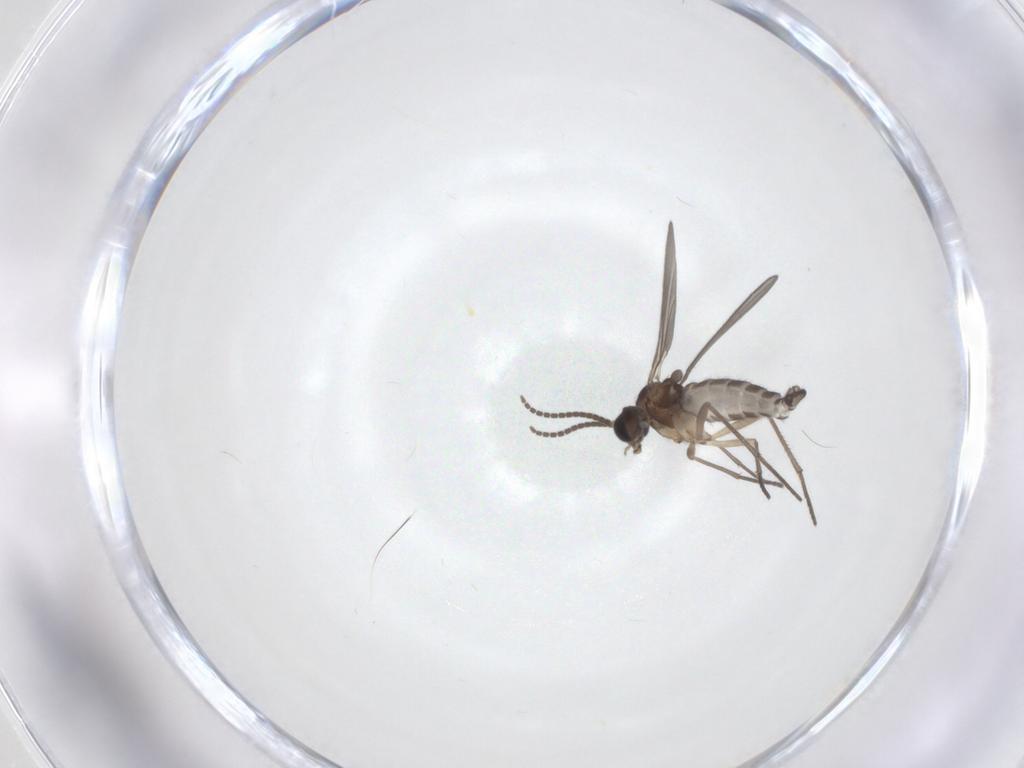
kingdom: Animalia
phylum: Arthropoda
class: Insecta
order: Diptera
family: Sciaridae
